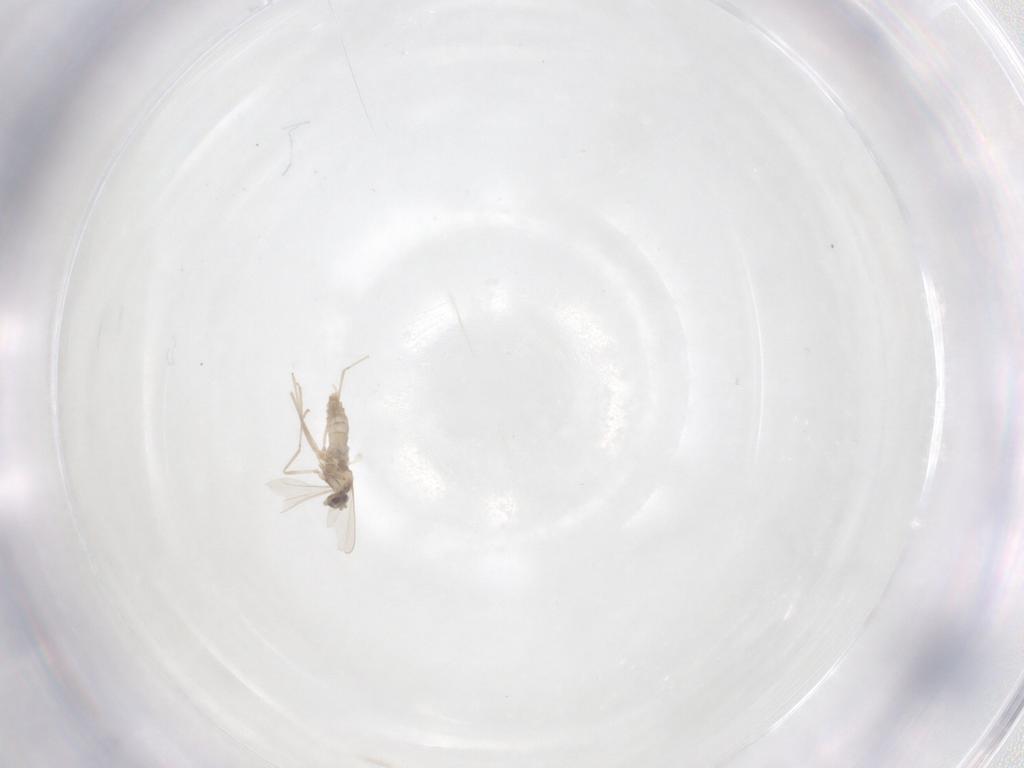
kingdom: Animalia
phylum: Arthropoda
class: Insecta
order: Diptera
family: Cecidomyiidae
